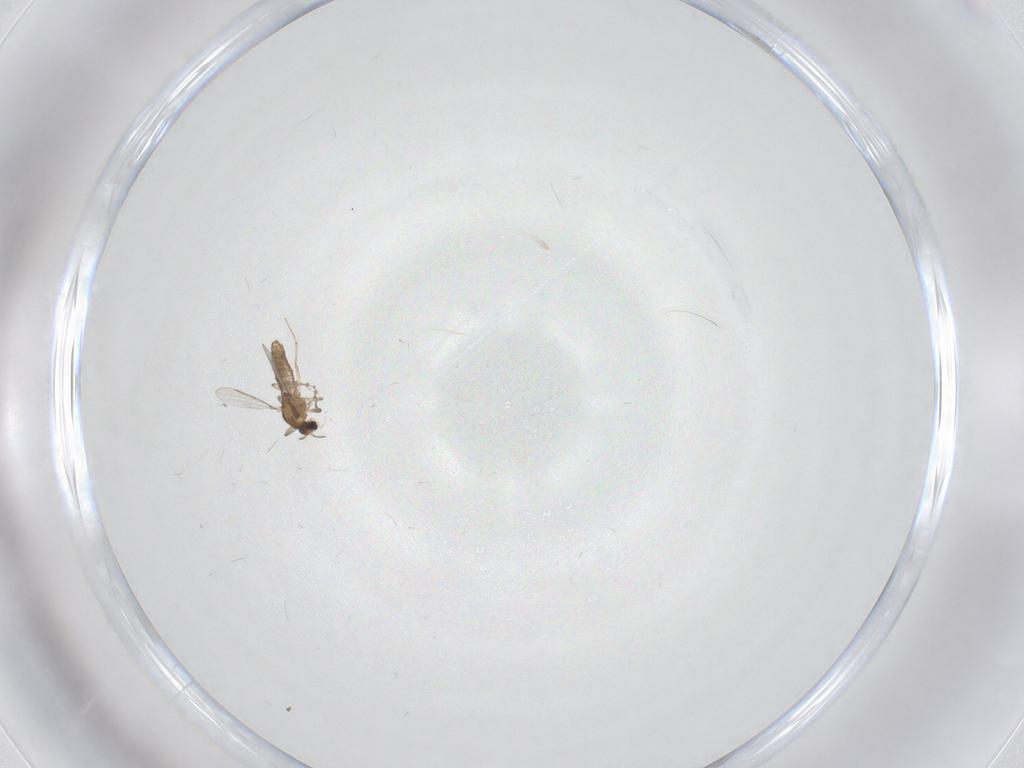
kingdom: Animalia
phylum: Arthropoda
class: Insecta
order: Diptera
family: Chironomidae
